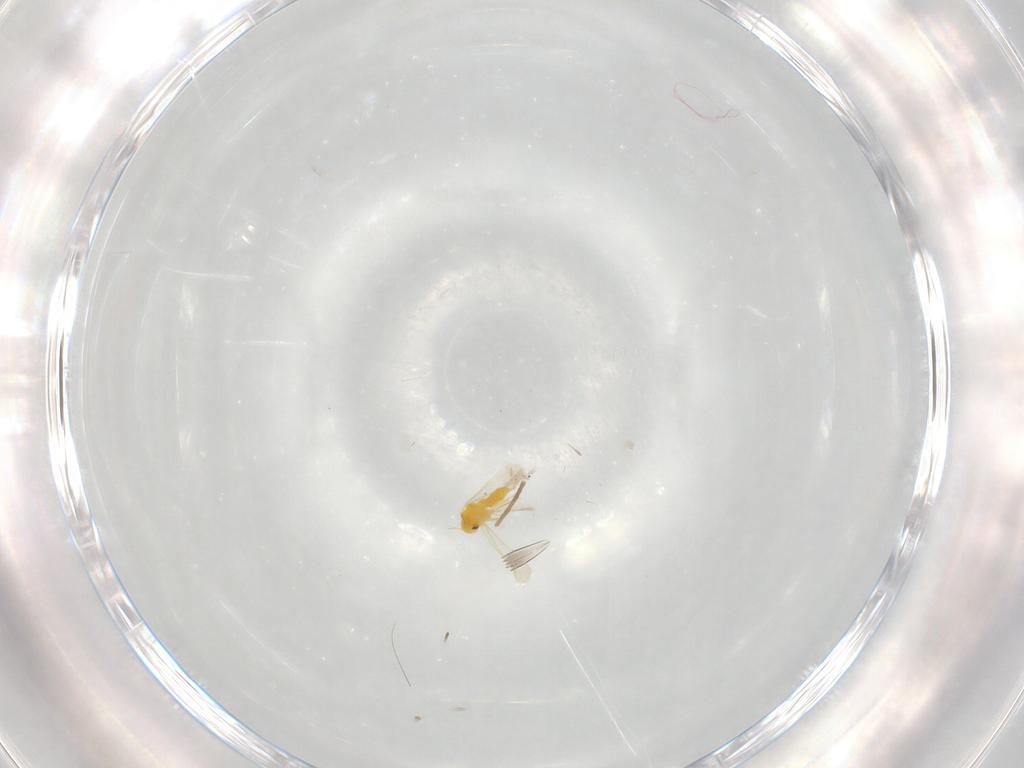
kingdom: Animalia
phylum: Arthropoda
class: Insecta
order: Hemiptera
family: Aleyrodidae
